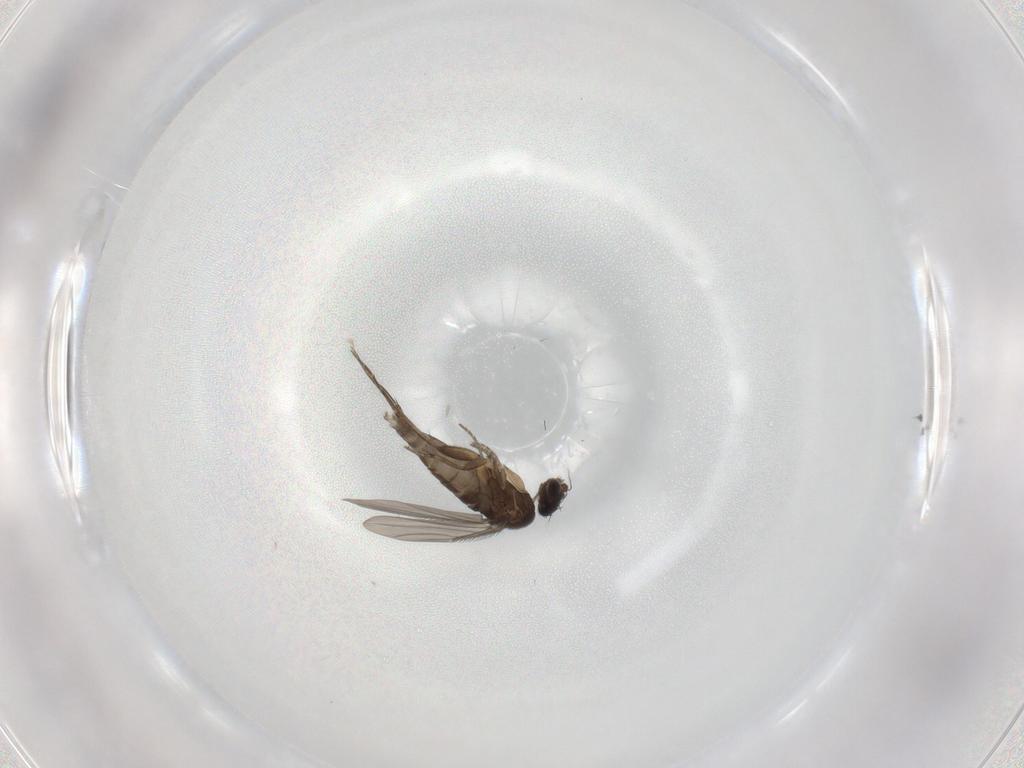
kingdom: Animalia
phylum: Arthropoda
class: Insecta
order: Diptera
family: Phoridae
